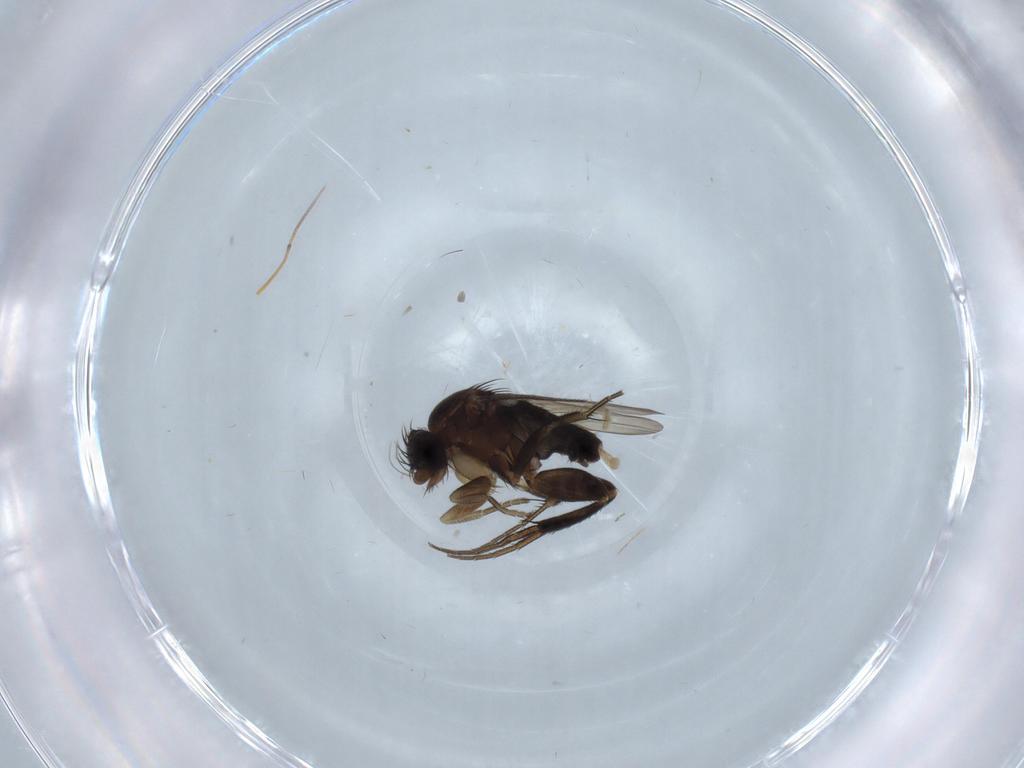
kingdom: Animalia
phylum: Arthropoda
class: Insecta
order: Diptera
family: Phoridae
